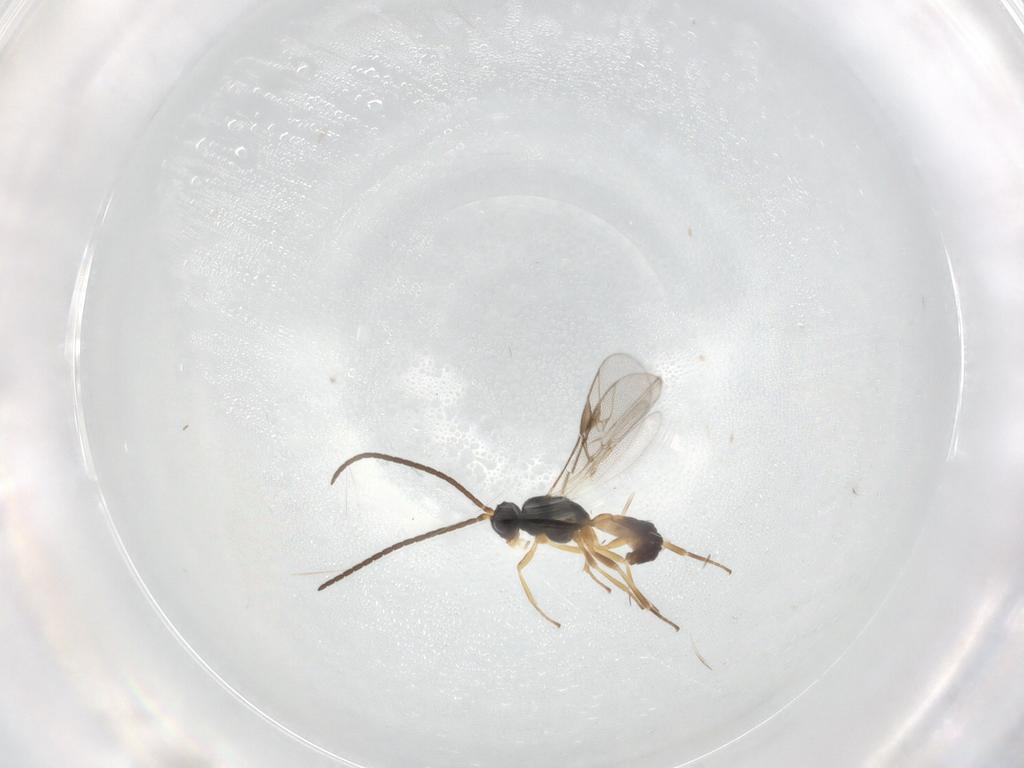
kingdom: Animalia
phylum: Arthropoda
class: Insecta
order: Hymenoptera
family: Braconidae
